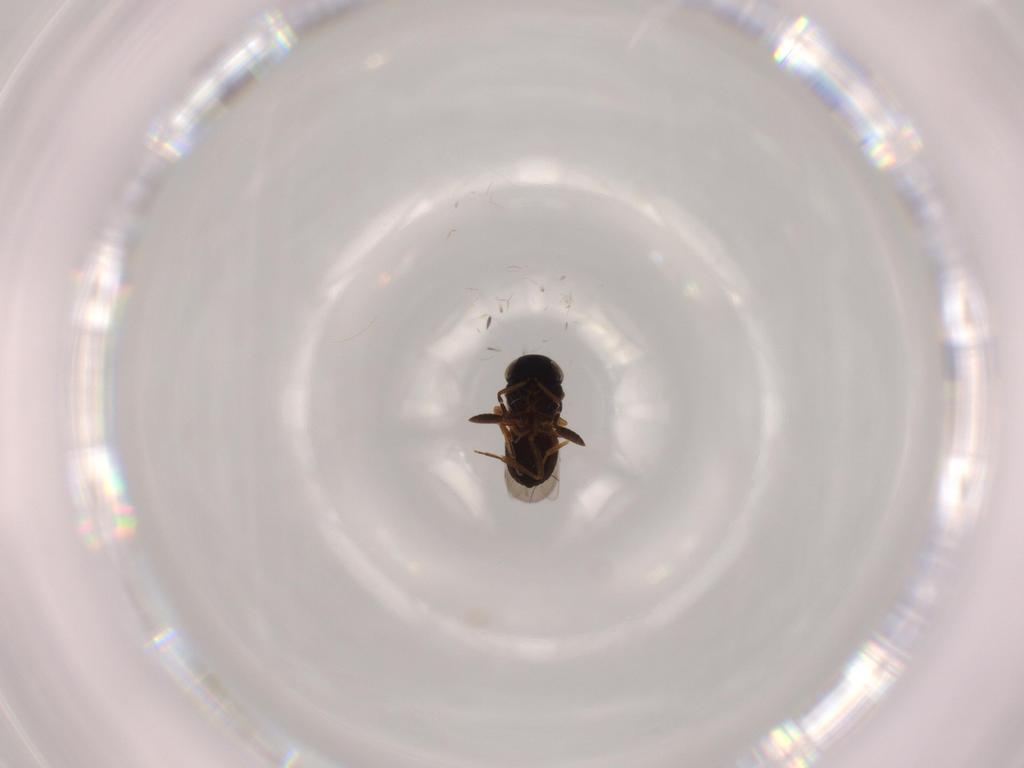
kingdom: Animalia
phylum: Arthropoda
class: Insecta
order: Hymenoptera
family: Scelionidae
